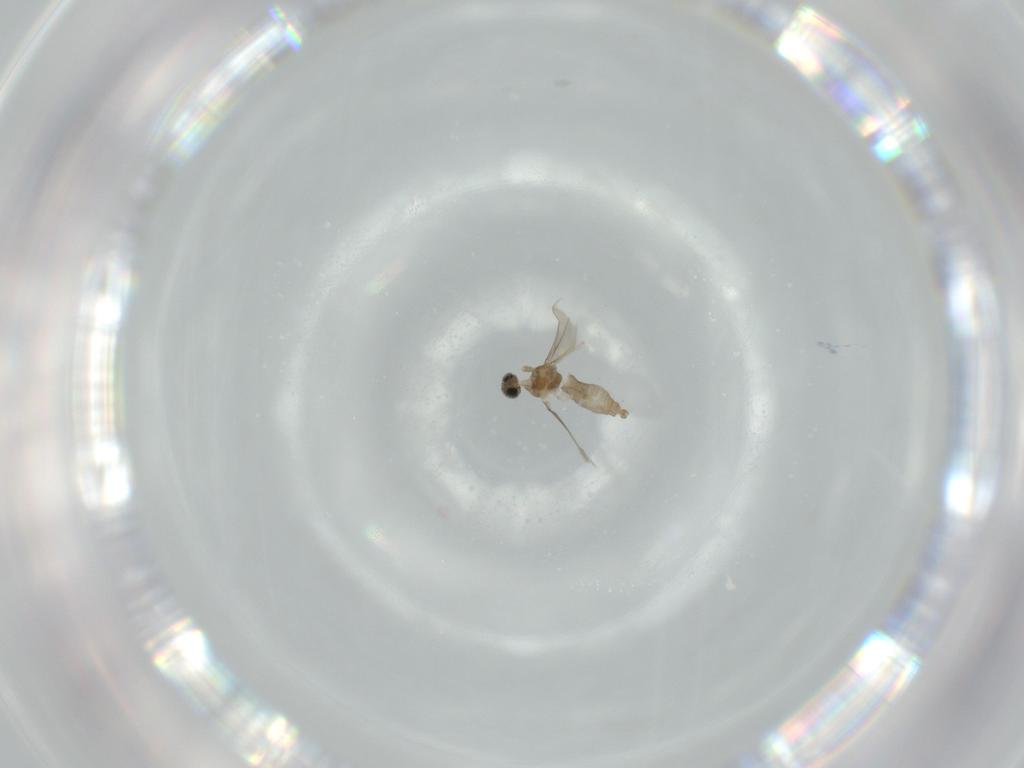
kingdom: Animalia
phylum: Arthropoda
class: Insecta
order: Diptera
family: Cecidomyiidae
